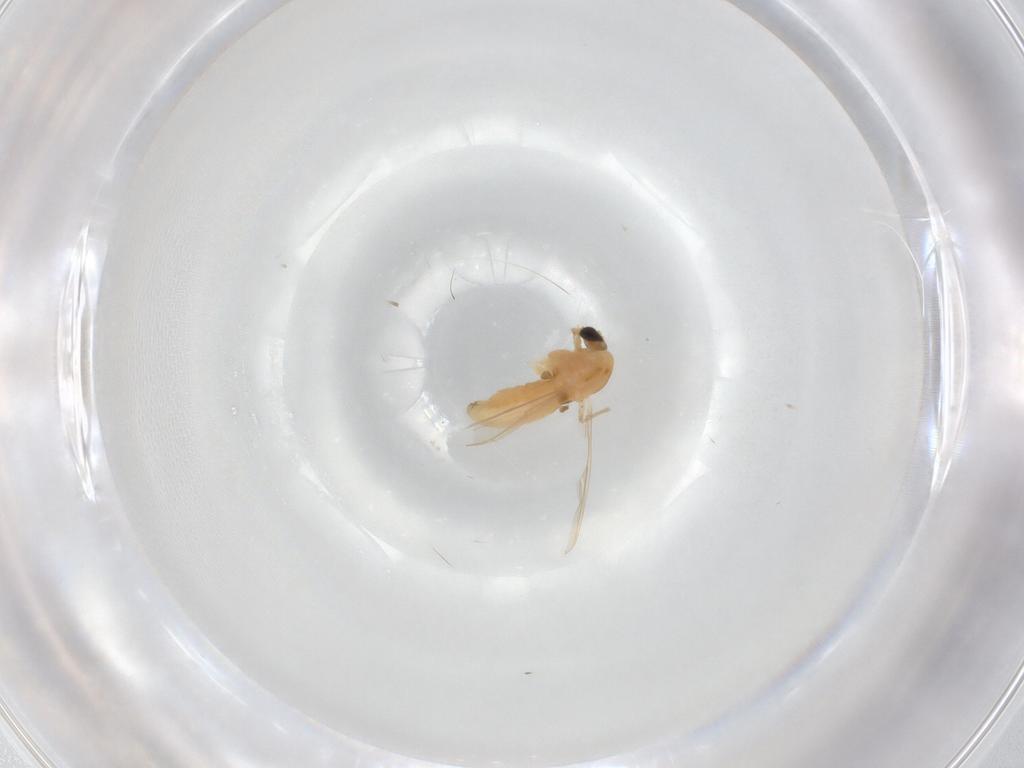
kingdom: Animalia
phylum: Arthropoda
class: Insecta
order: Diptera
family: Chironomidae
